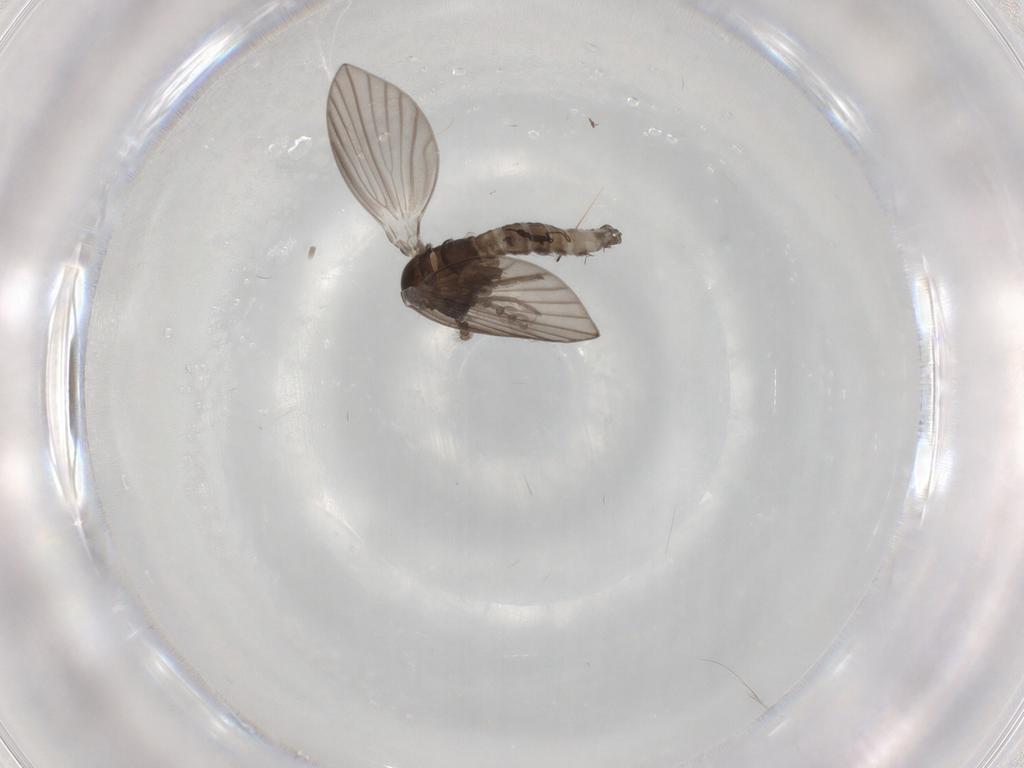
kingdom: Animalia
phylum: Arthropoda
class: Insecta
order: Diptera
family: Psychodidae
